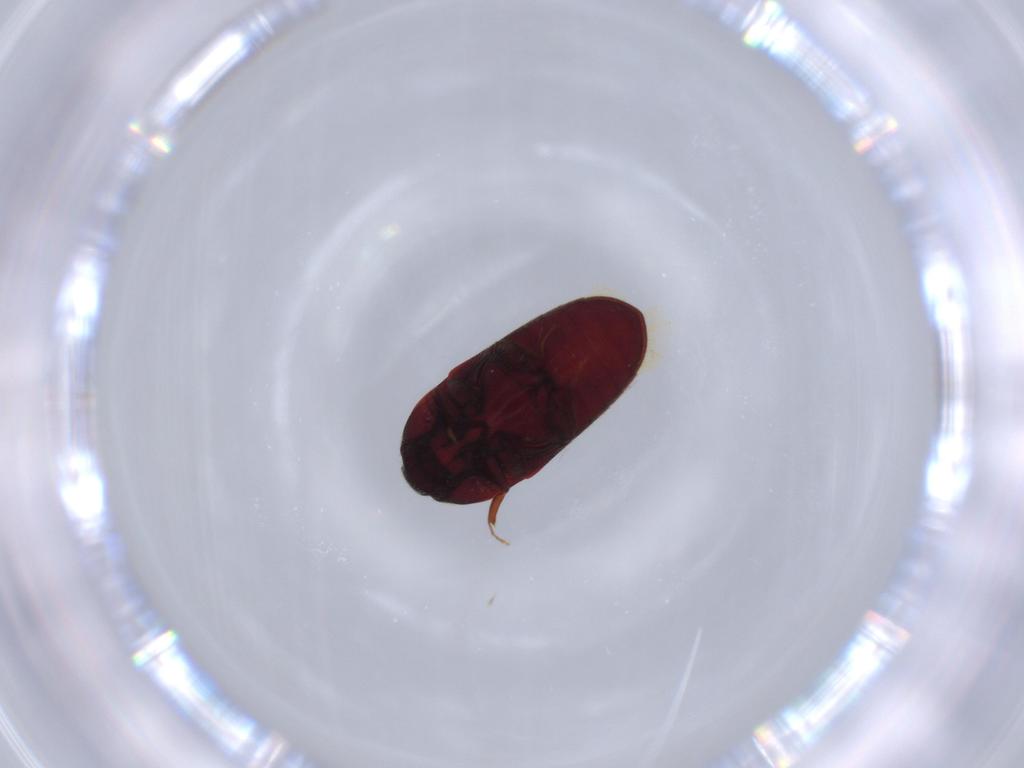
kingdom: Animalia
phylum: Arthropoda
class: Insecta
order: Coleoptera
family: Throscidae
